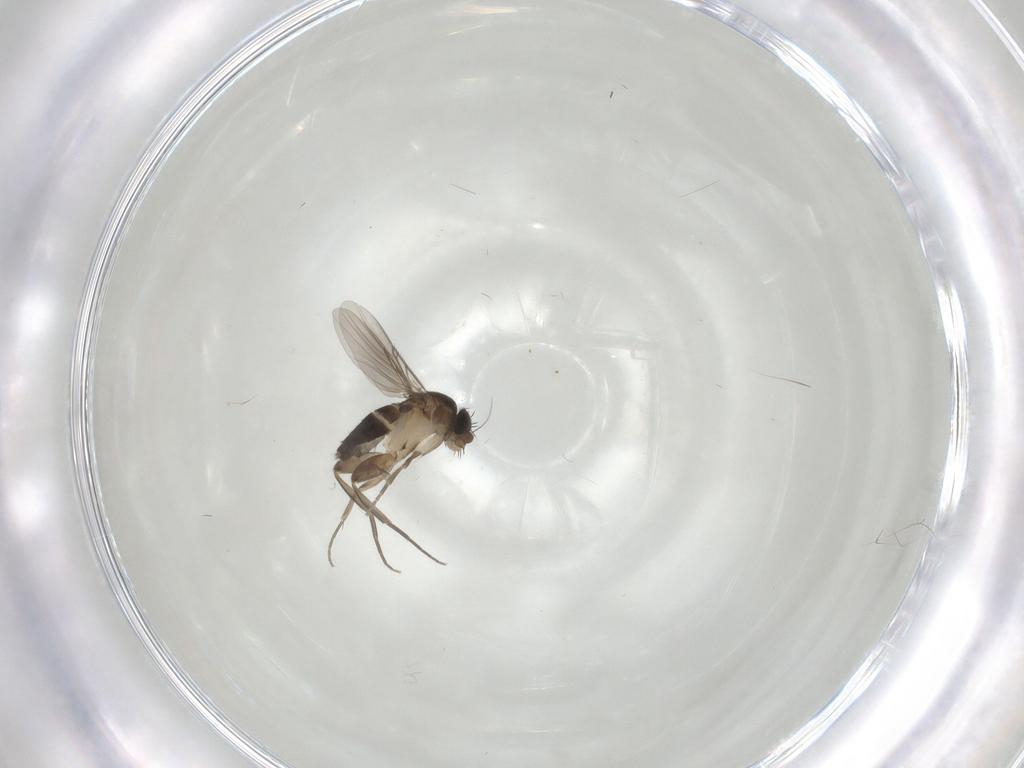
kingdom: Animalia
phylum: Arthropoda
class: Insecta
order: Diptera
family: Phoridae
